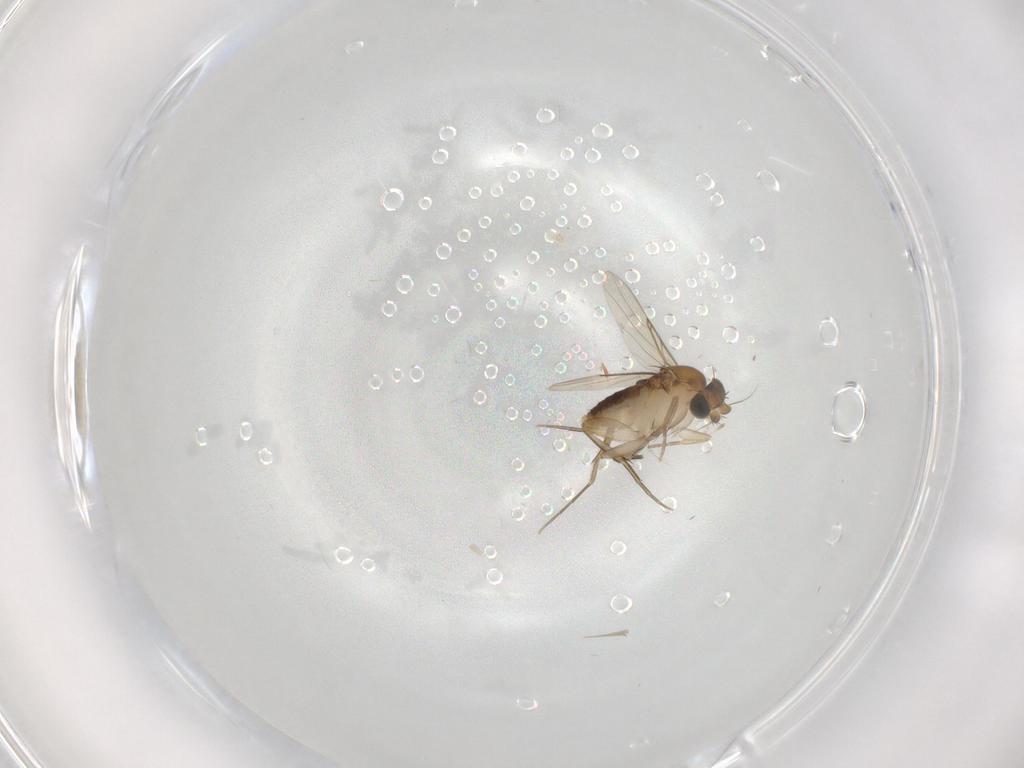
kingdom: Animalia
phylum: Arthropoda
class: Insecta
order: Diptera
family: Phoridae
